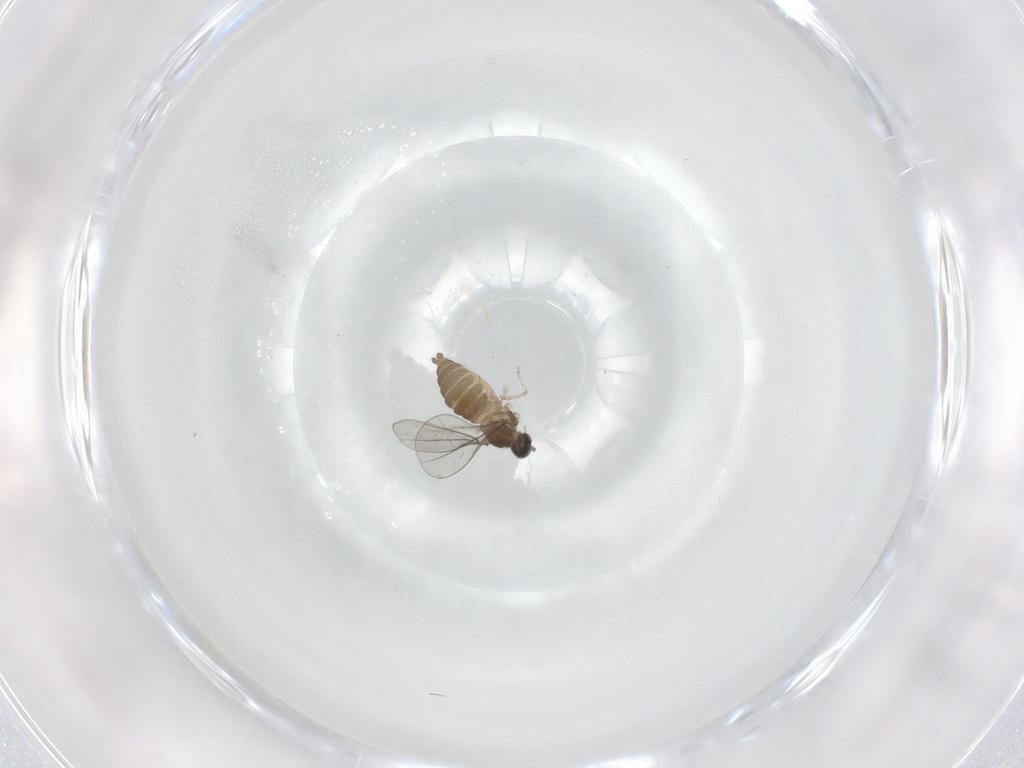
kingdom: Animalia
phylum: Arthropoda
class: Insecta
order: Diptera
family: Cecidomyiidae
